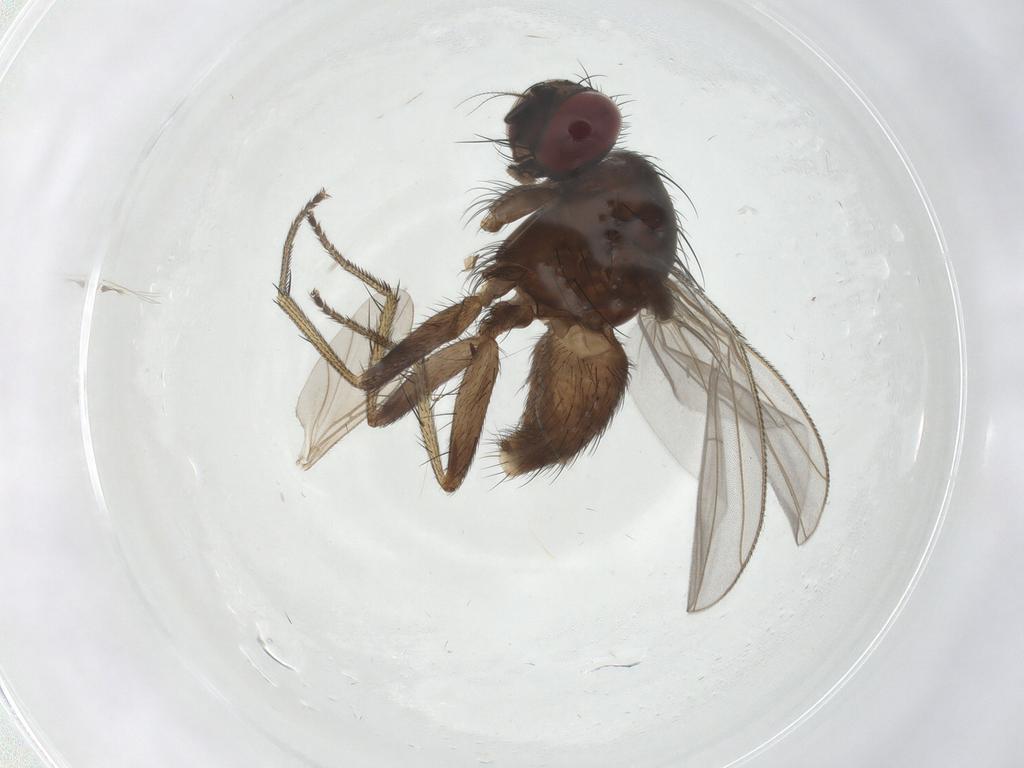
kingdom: Animalia
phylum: Arthropoda
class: Insecta
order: Diptera
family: Muscidae
